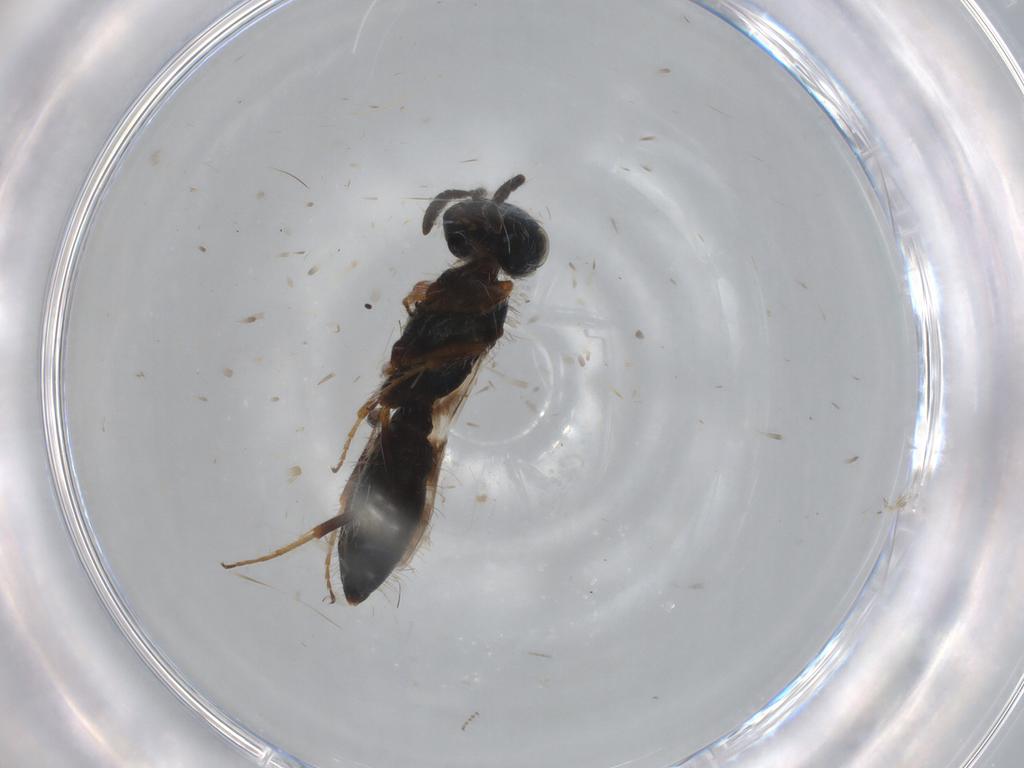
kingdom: Animalia
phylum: Arthropoda
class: Insecta
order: Hymenoptera
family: Scelionidae
